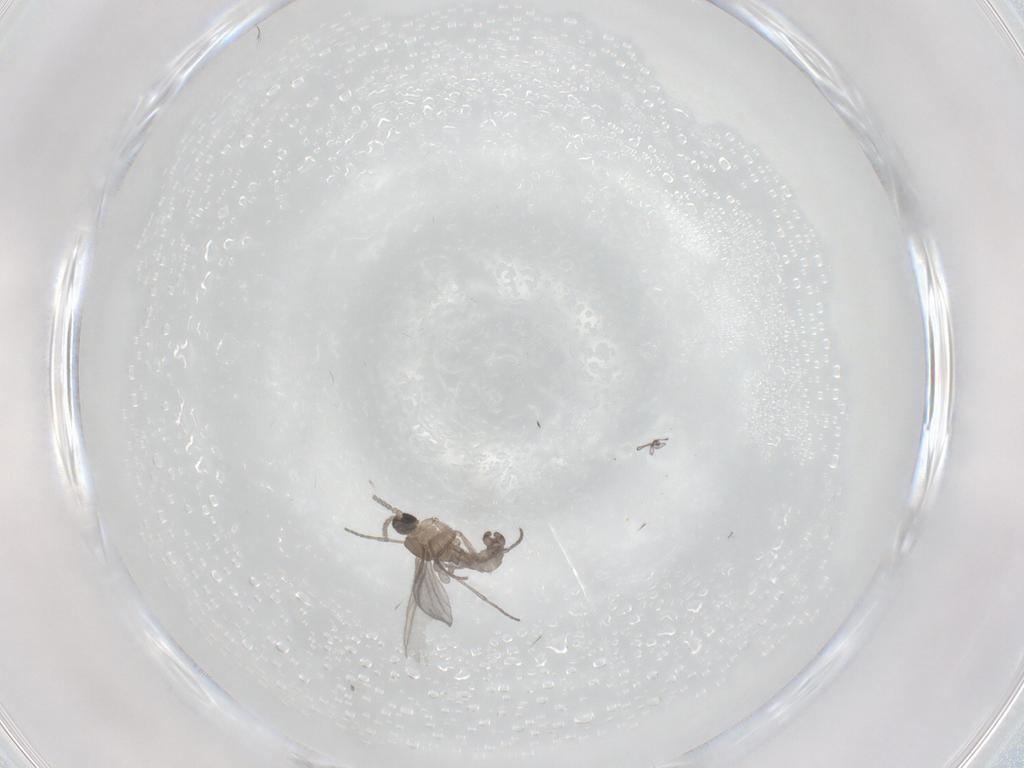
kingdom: Animalia
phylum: Arthropoda
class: Insecta
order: Diptera
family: Sciaridae
